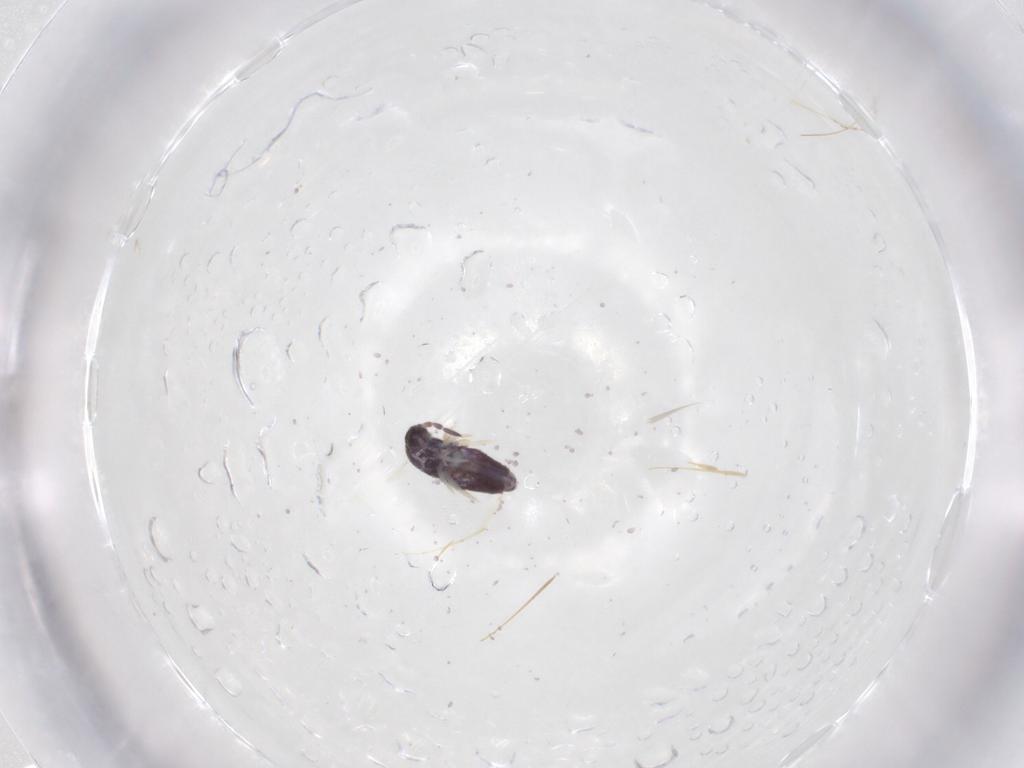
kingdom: Animalia
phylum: Arthropoda
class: Collembola
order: Entomobryomorpha
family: Entomobryidae
